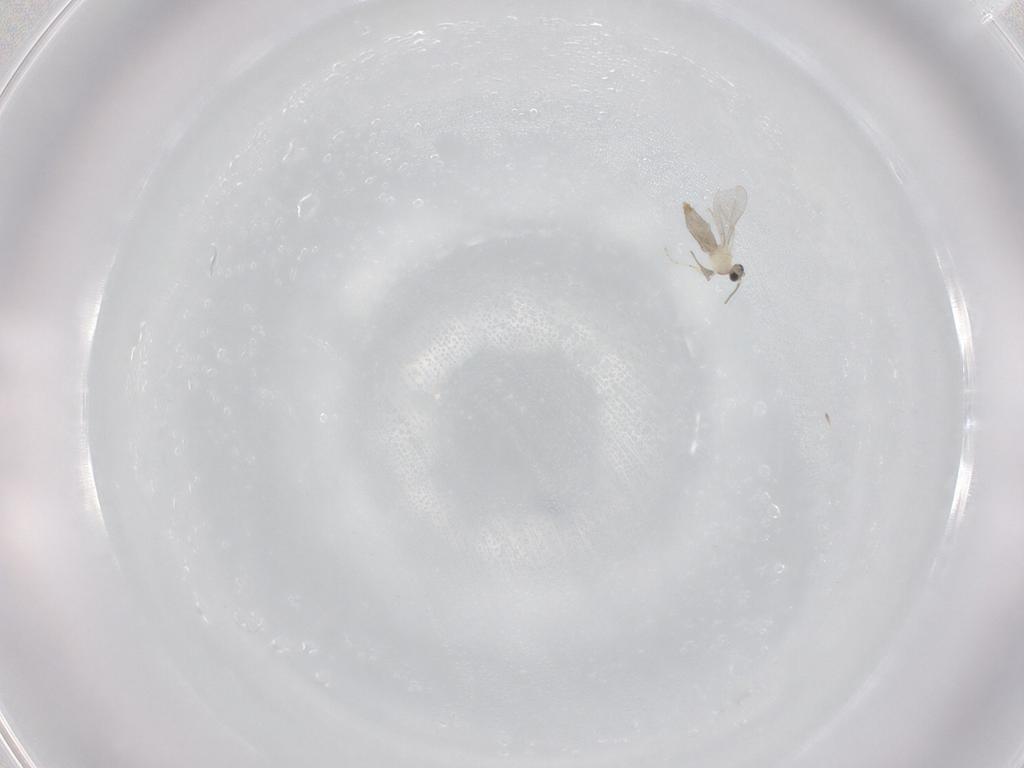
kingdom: Animalia
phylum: Arthropoda
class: Insecta
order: Diptera
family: Cecidomyiidae
